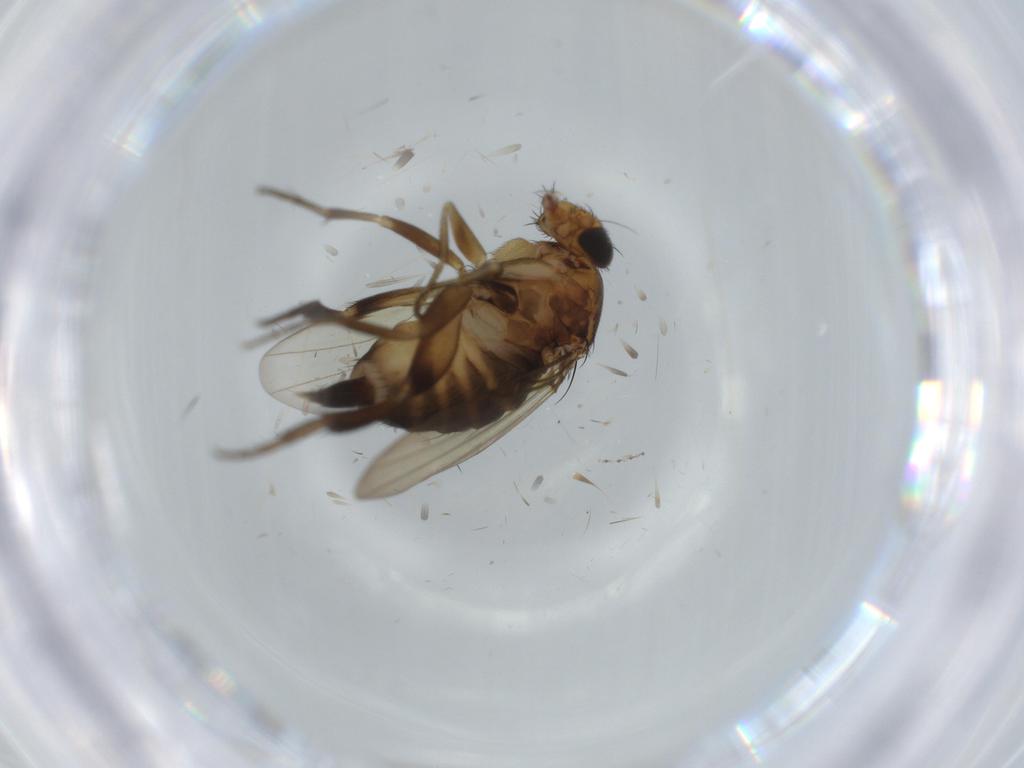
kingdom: Animalia
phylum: Arthropoda
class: Insecta
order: Diptera
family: Phoridae
